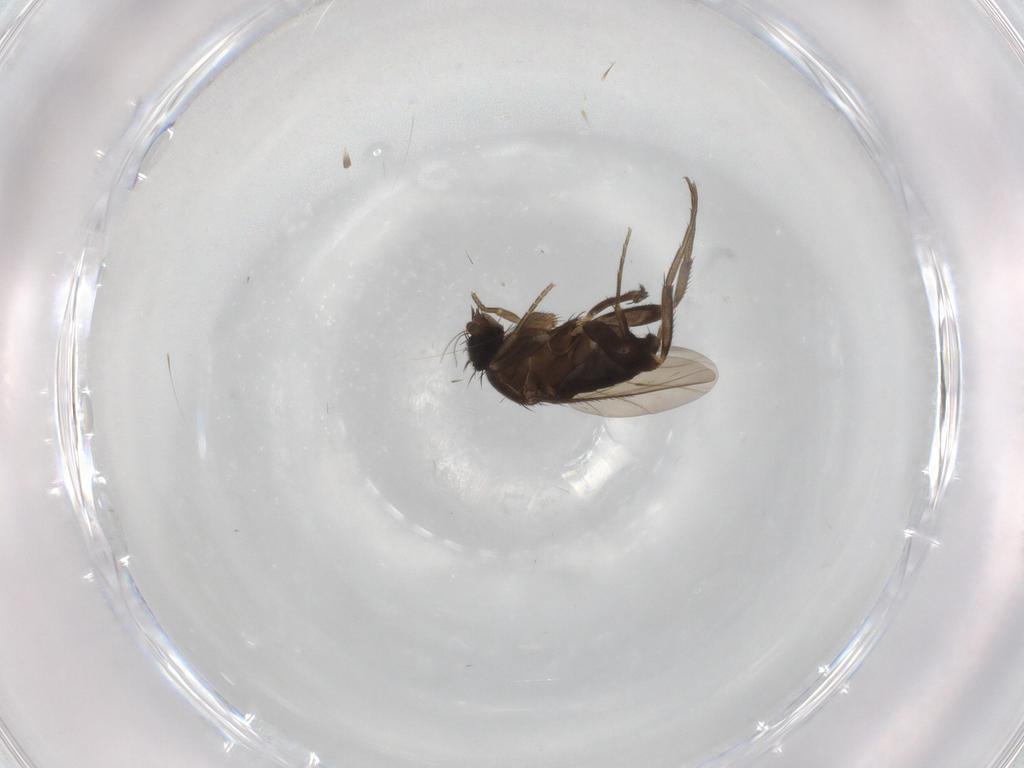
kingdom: Animalia
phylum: Arthropoda
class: Insecta
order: Diptera
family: Phoridae
